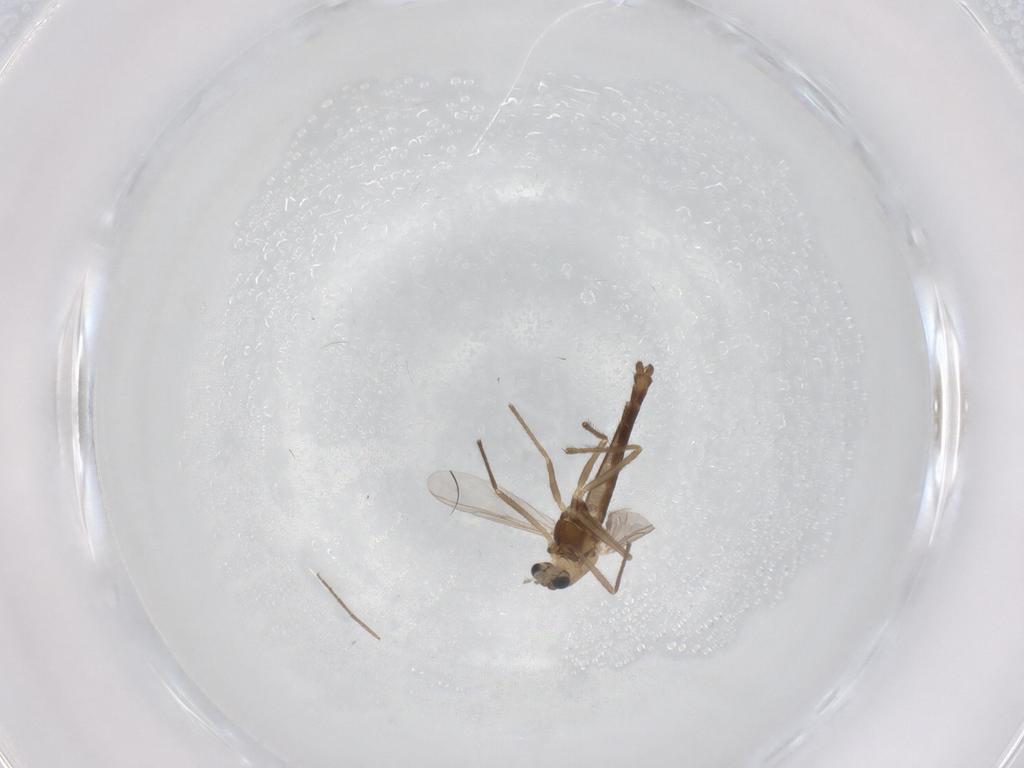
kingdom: Animalia
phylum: Arthropoda
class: Insecta
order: Diptera
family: Chironomidae
